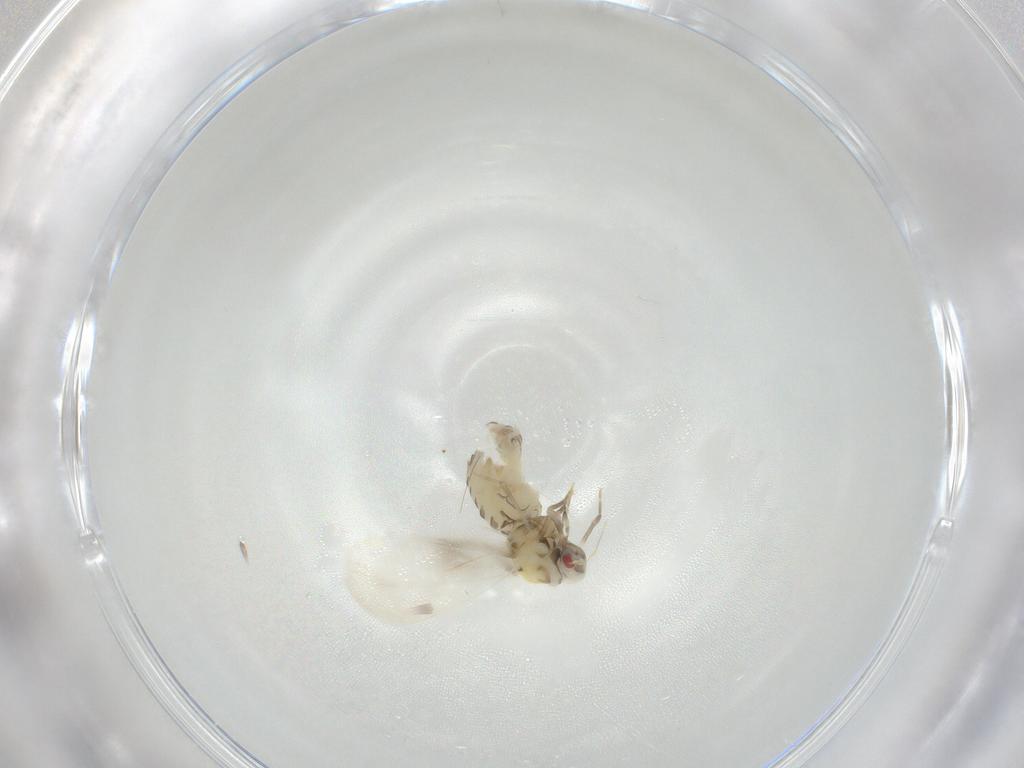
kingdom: Animalia
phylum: Arthropoda
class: Insecta
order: Hemiptera
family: Aleyrodidae
